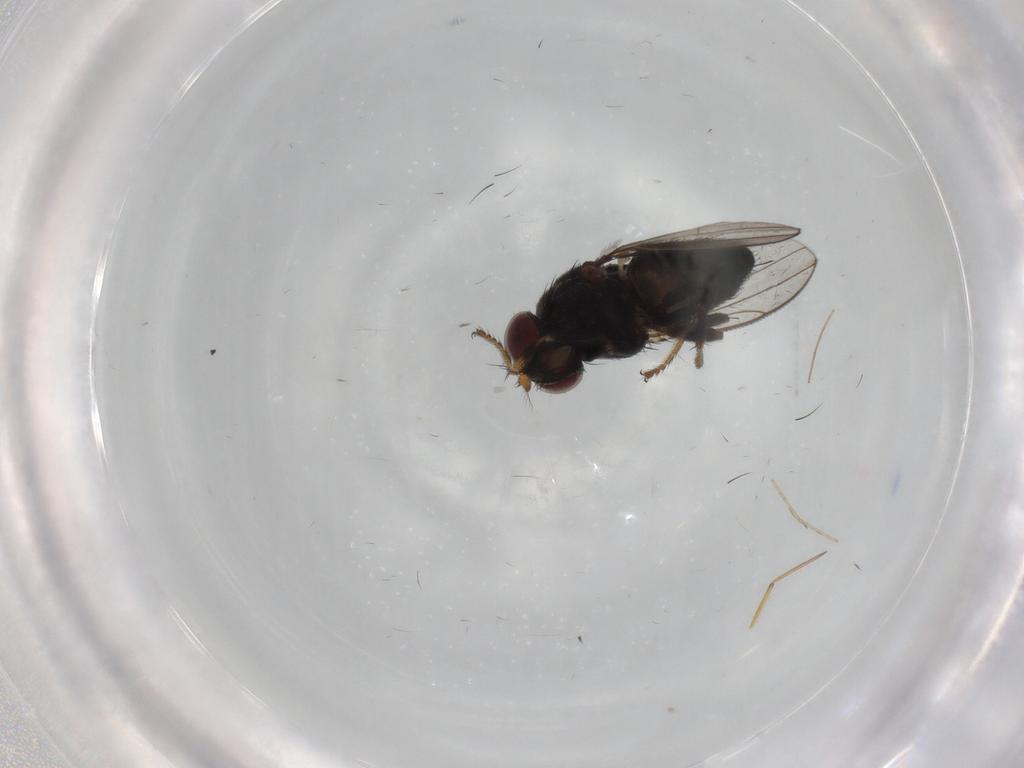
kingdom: Animalia
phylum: Arthropoda
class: Insecta
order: Diptera
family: Ephydridae
